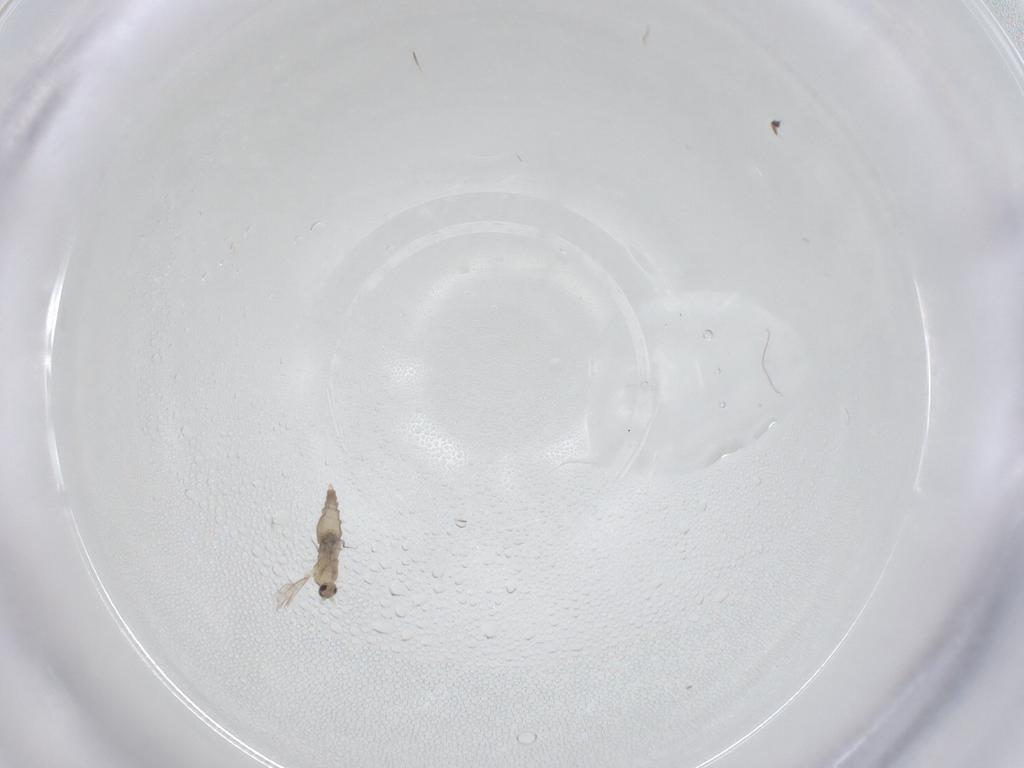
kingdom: Animalia
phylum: Arthropoda
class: Insecta
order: Diptera
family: Cecidomyiidae
